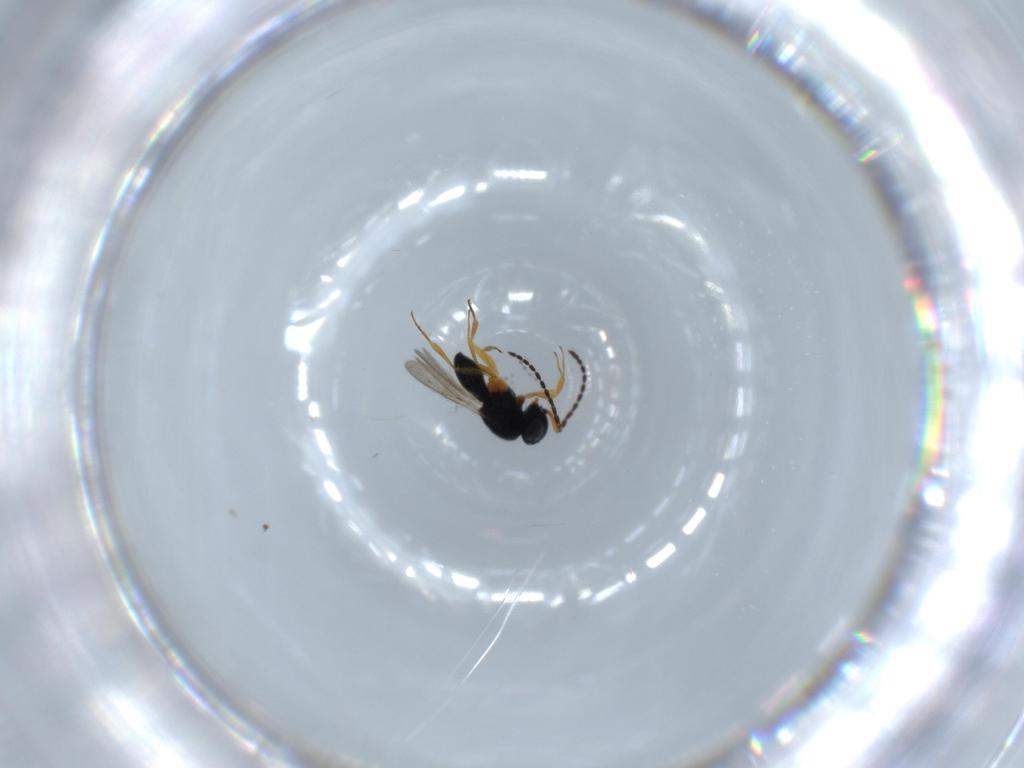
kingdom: Animalia
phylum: Arthropoda
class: Insecta
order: Hymenoptera
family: Scelionidae
